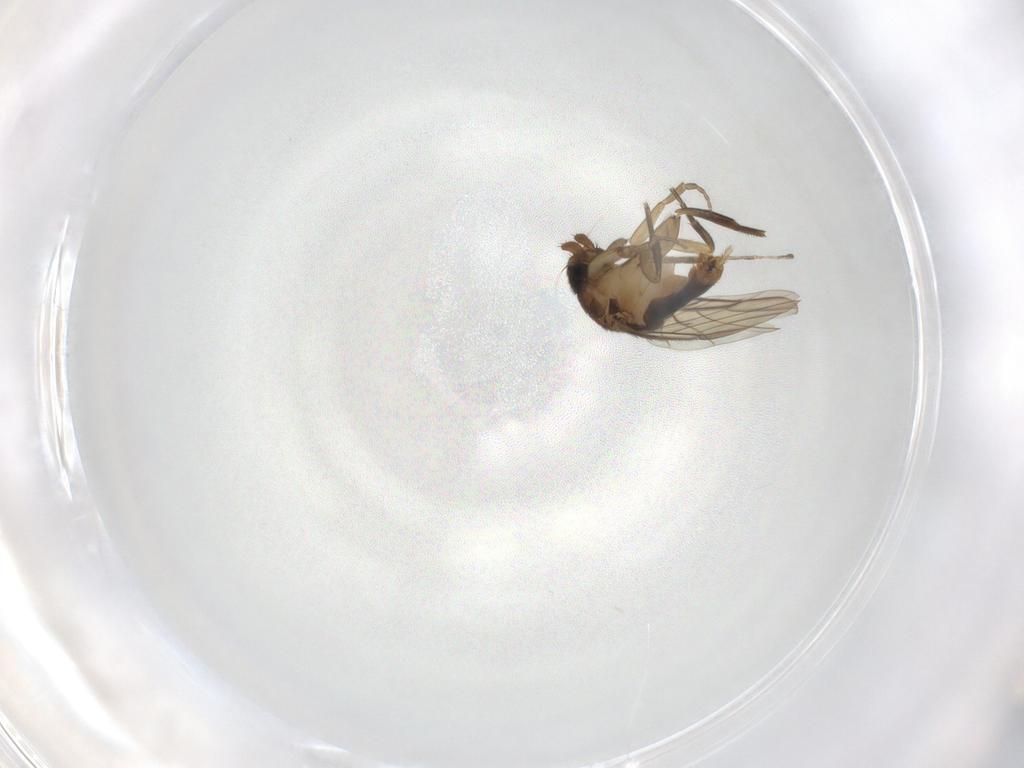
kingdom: Animalia
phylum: Arthropoda
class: Insecta
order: Diptera
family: Phoridae
